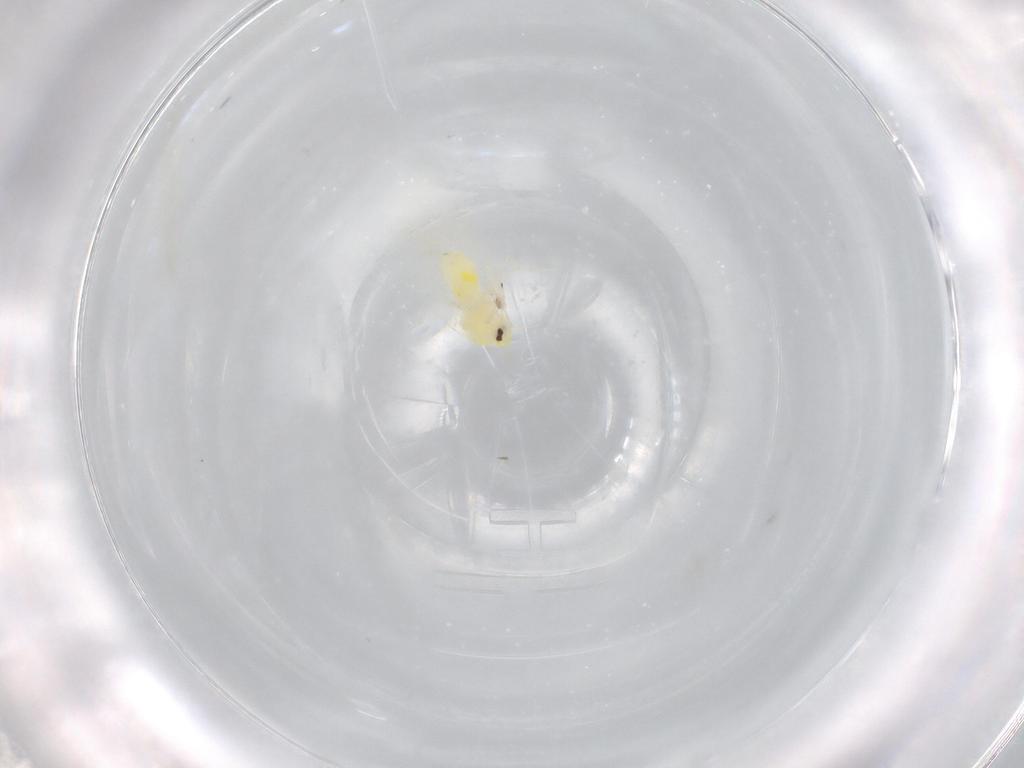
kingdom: Animalia
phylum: Arthropoda
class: Insecta
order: Hemiptera
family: Aleyrodidae
